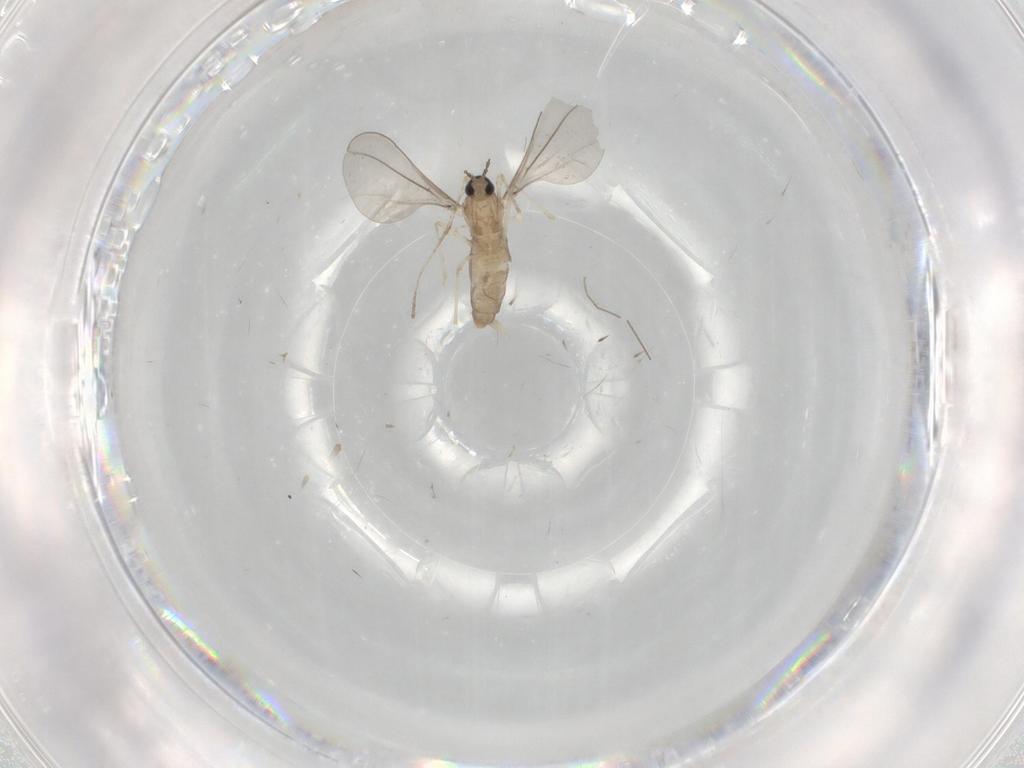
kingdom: Animalia
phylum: Arthropoda
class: Insecta
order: Diptera
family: Cecidomyiidae
